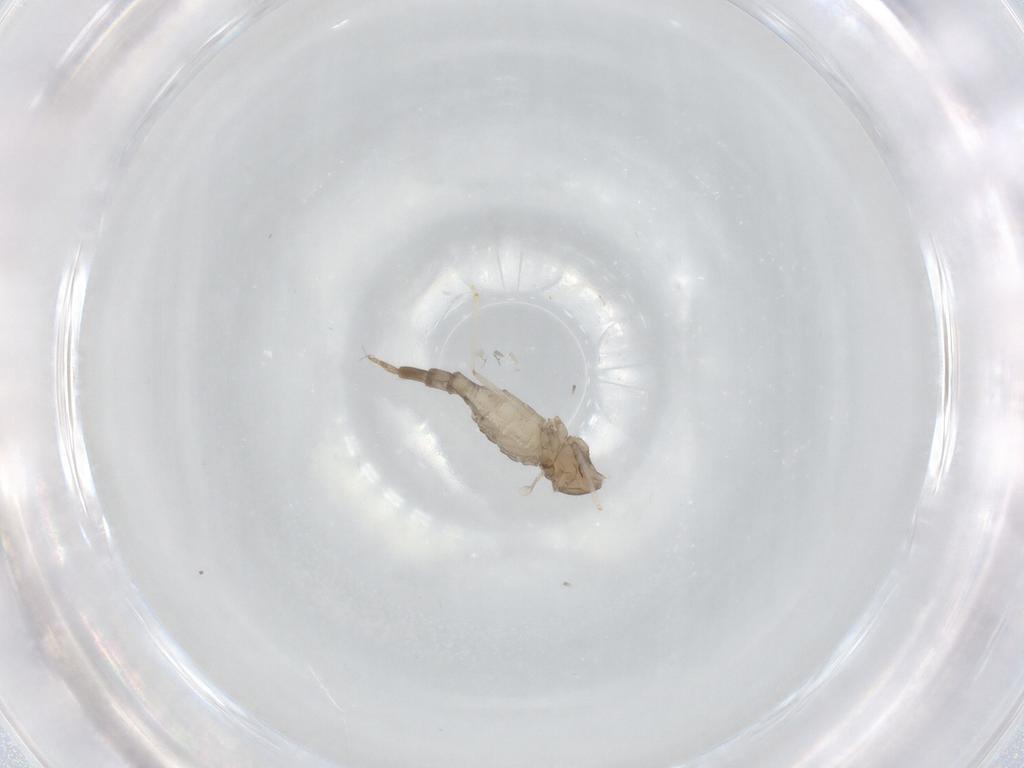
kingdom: Animalia
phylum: Arthropoda
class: Insecta
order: Diptera
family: Cecidomyiidae
